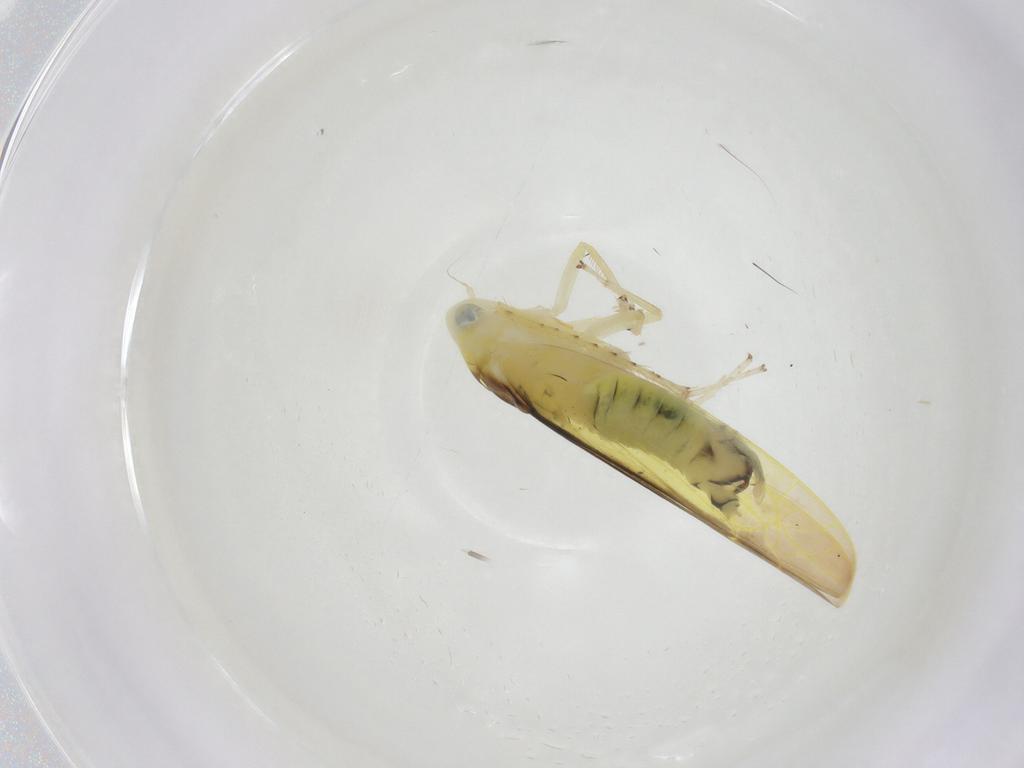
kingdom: Animalia
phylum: Arthropoda
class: Insecta
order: Hemiptera
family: Cicadellidae
